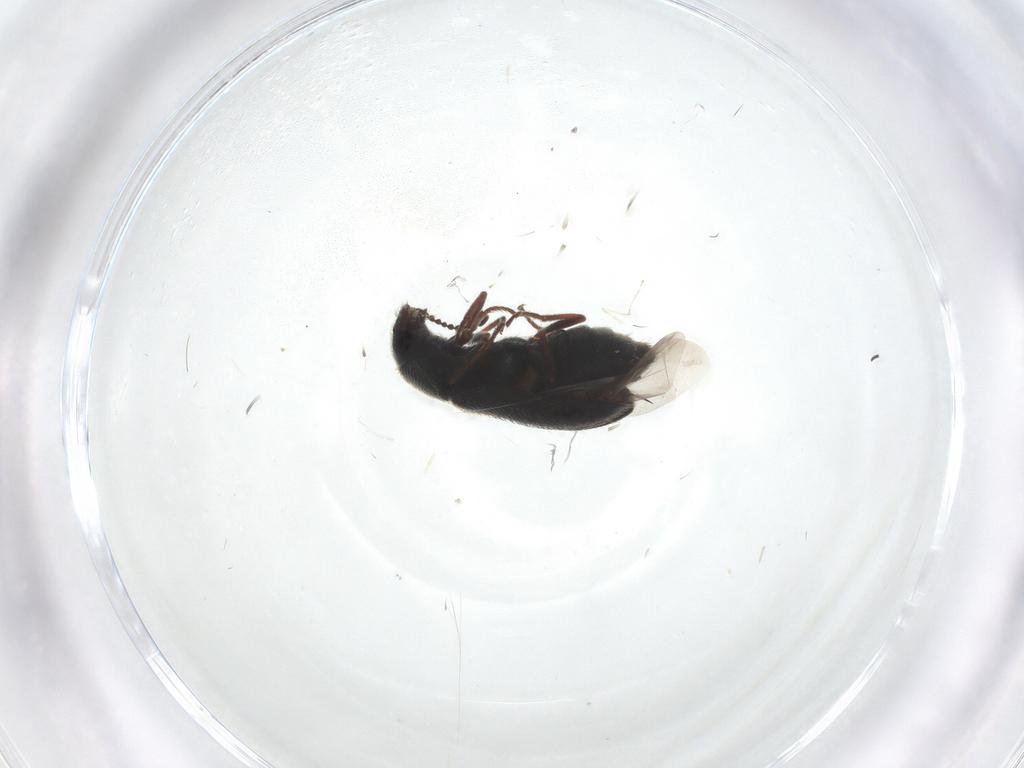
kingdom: Animalia
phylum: Arthropoda
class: Insecta
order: Coleoptera
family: Melyridae
